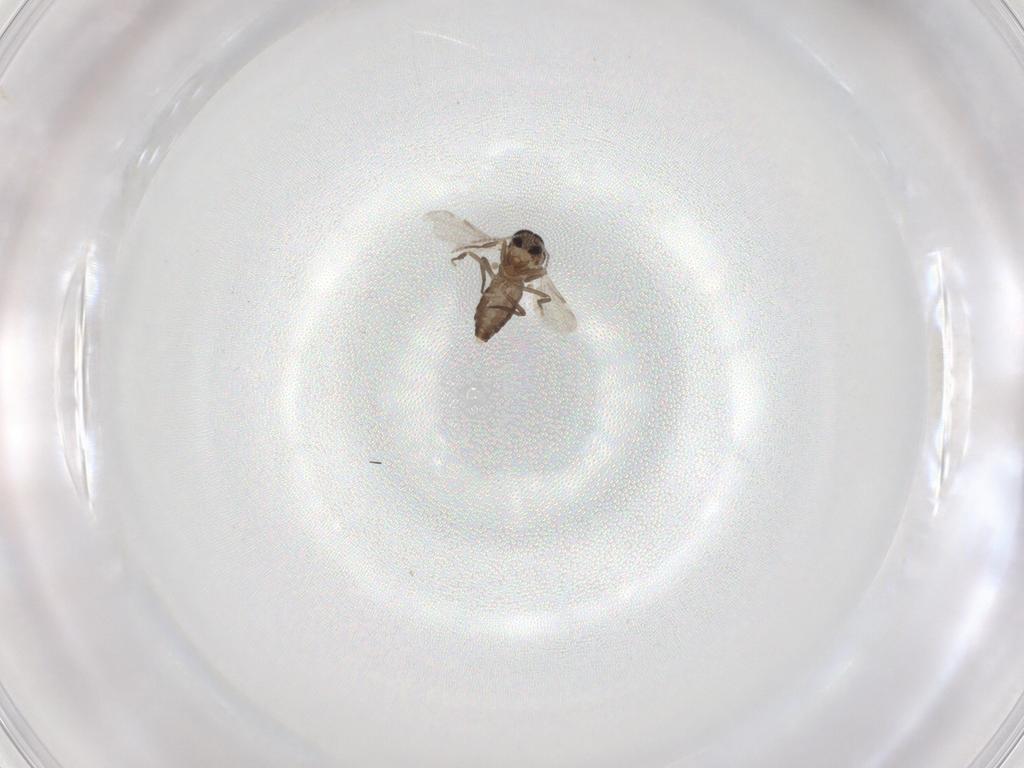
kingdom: Animalia
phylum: Arthropoda
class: Insecta
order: Diptera
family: Ceratopogonidae
